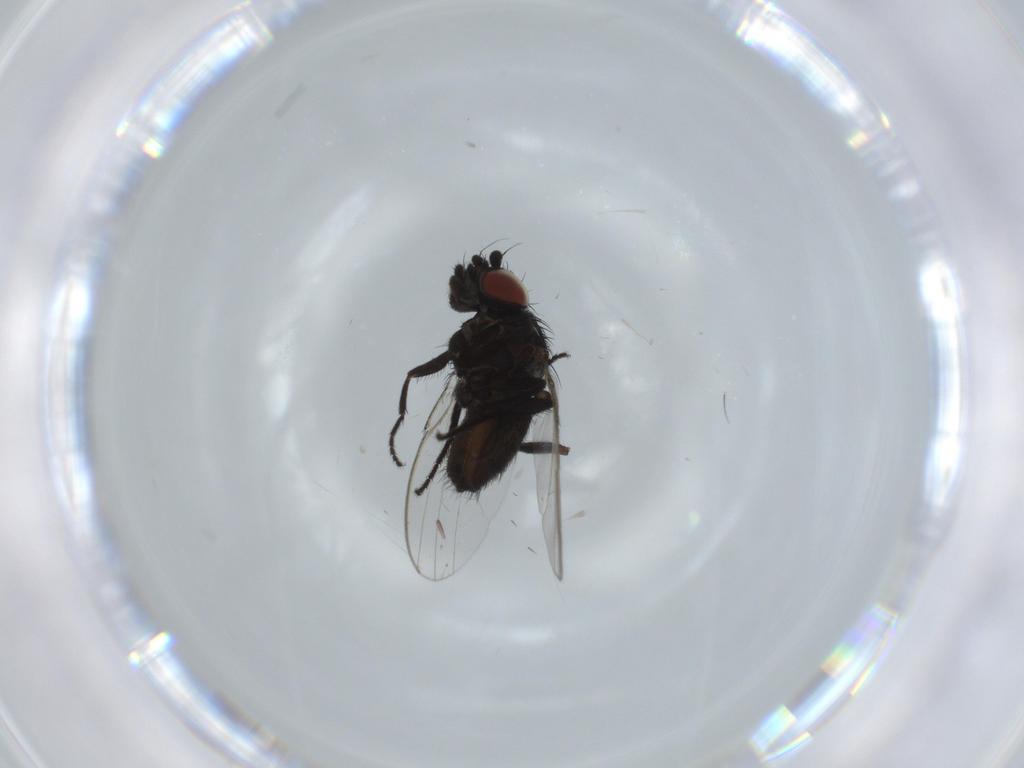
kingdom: Animalia
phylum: Arthropoda
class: Insecta
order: Diptera
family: Milichiidae
